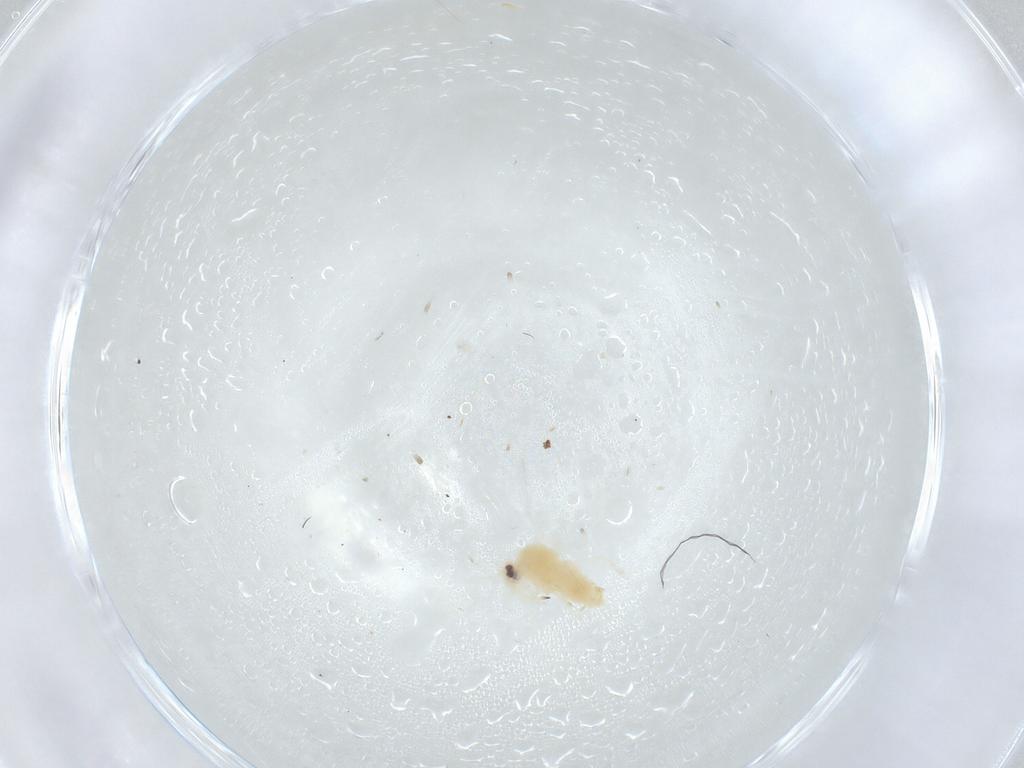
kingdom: Animalia
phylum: Arthropoda
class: Insecta
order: Hemiptera
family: Aleyrodidae
